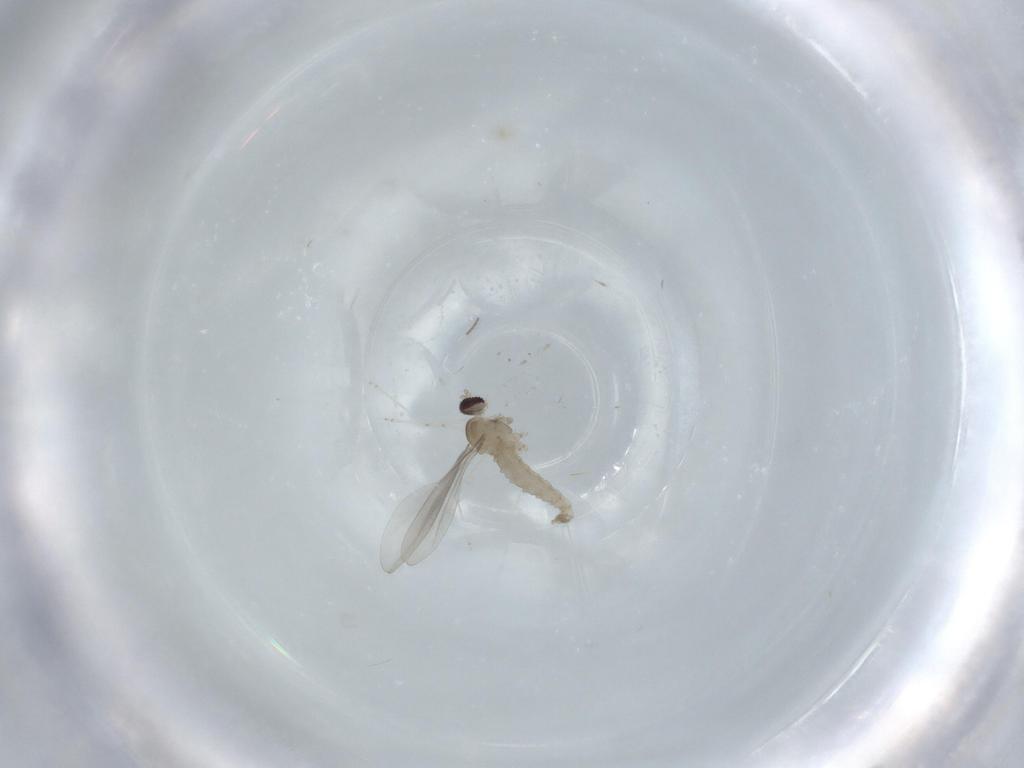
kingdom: Animalia
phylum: Arthropoda
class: Insecta
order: Diptera
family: Cecidomyiidae
